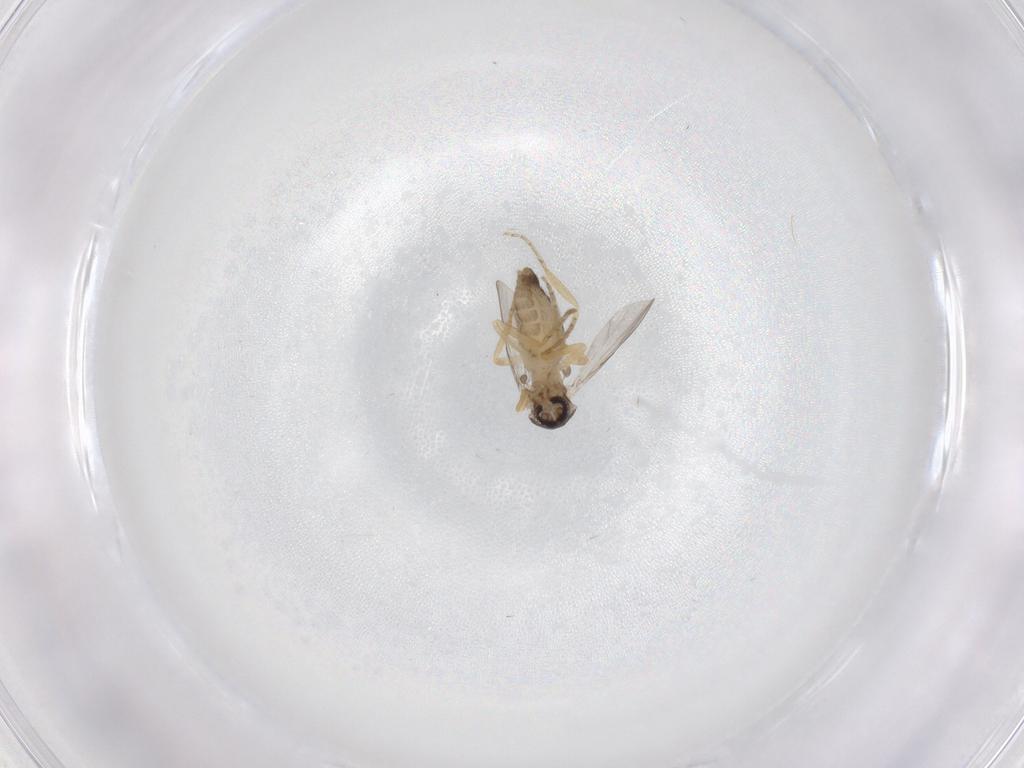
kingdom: Animalia
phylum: Arthropoda
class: Insecta
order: Diptera
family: Ceratopogonidae
